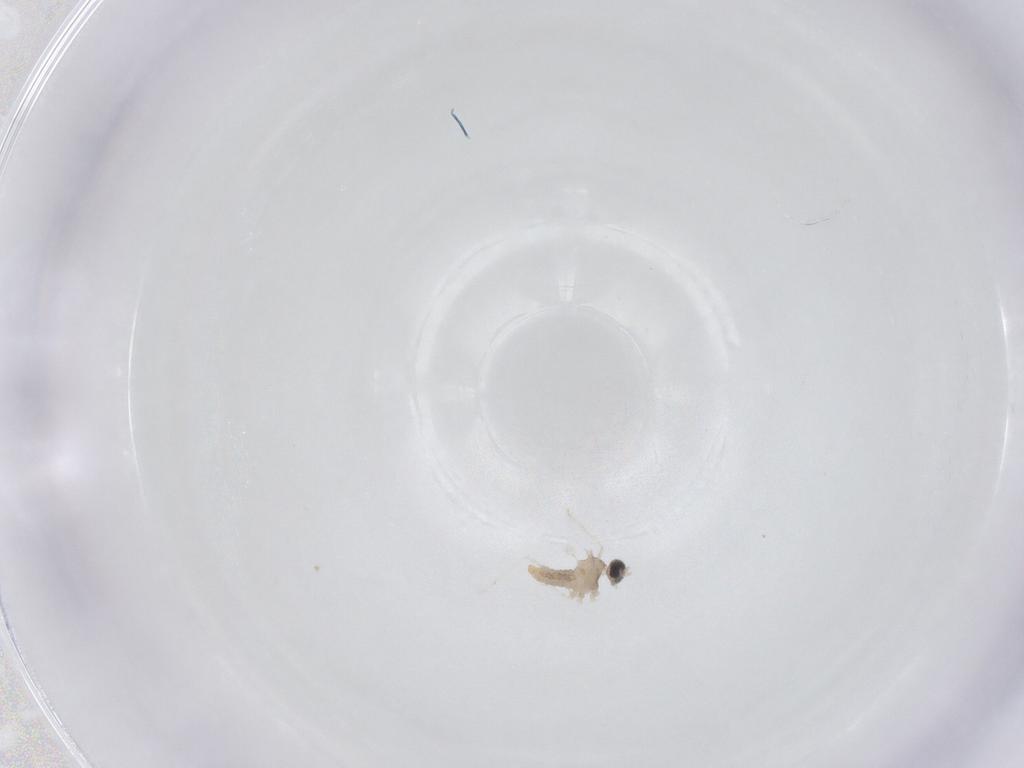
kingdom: Animalia
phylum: Arthropoda
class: Insecta
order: Diptera
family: Cecidomyiidae
